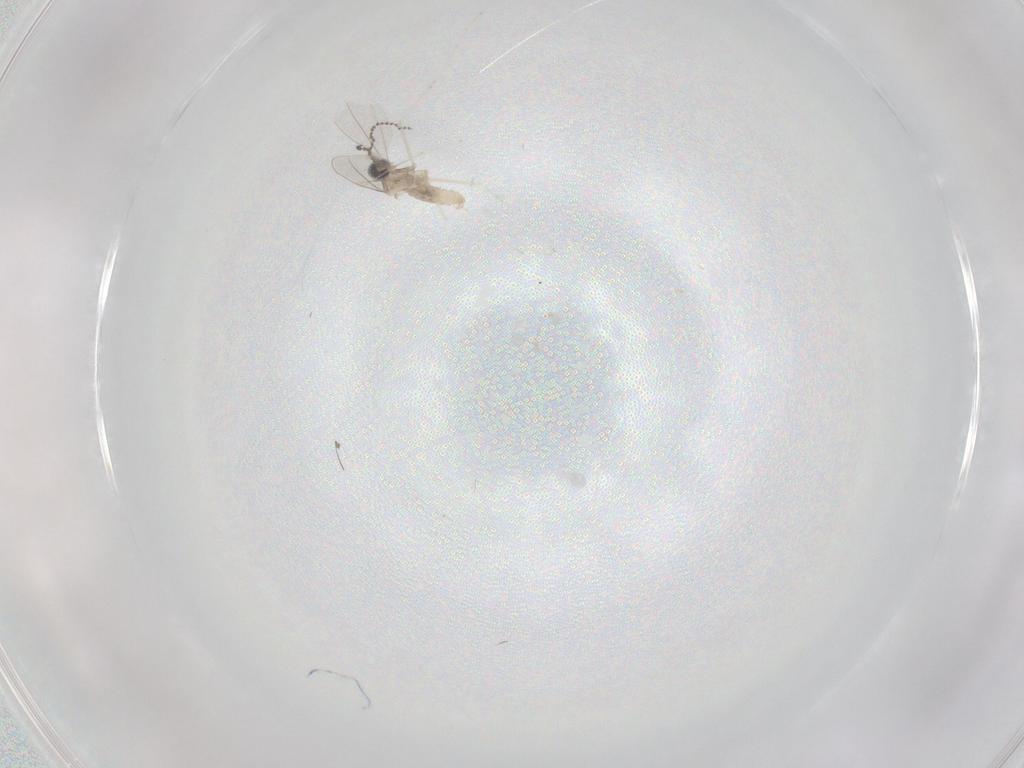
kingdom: Animalia
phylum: Arthropoda
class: Insecta
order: Diptera
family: Cecidomyiidae
